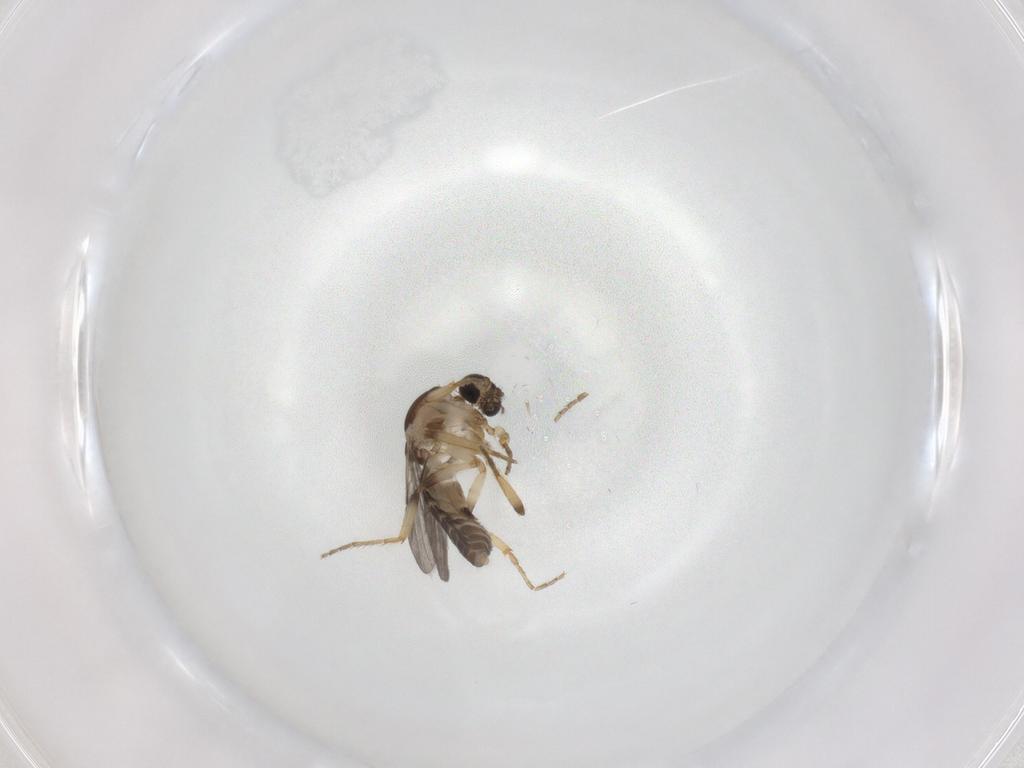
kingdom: Animalia
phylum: Arthropoda
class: Insecta
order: Diptera
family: Ceratopogonidae
